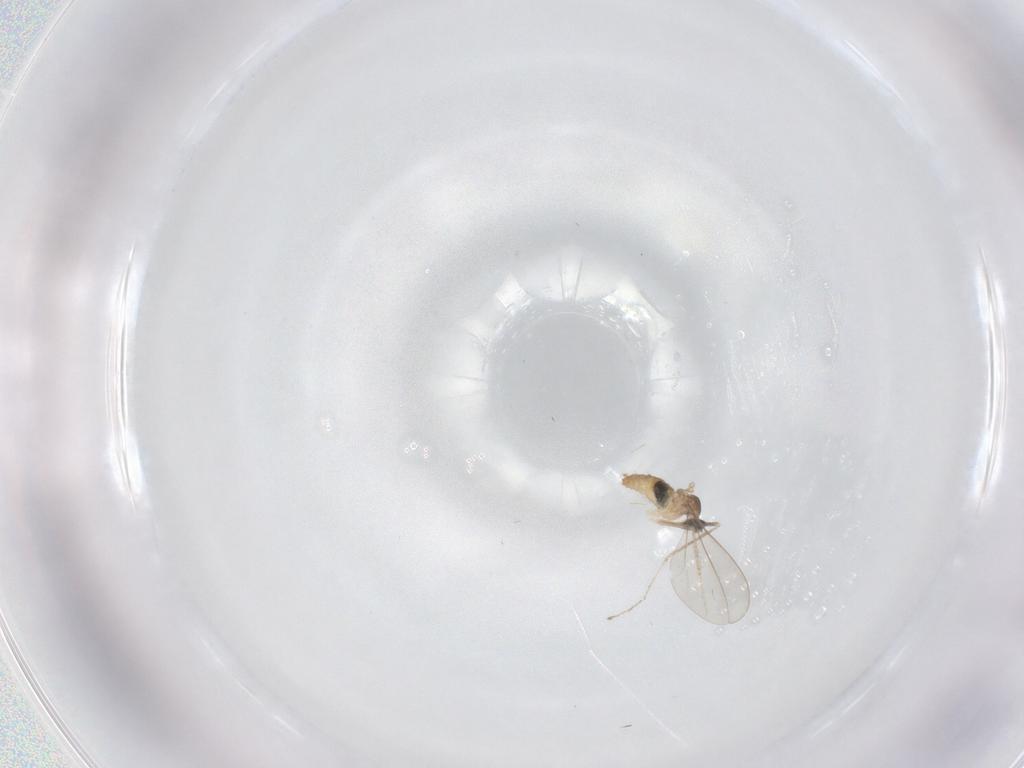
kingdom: Animalia
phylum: Arthropoda
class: Insecta
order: Diptera
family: Cecidomyiidae
